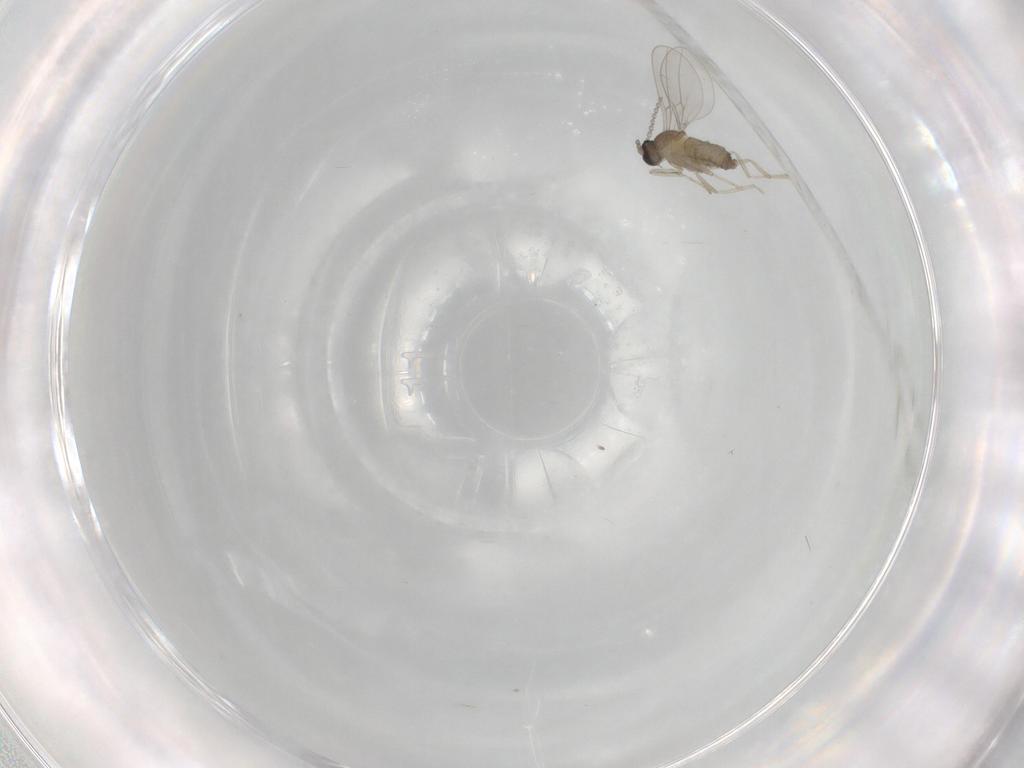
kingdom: Animalia
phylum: Arthropoda
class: Insecta
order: Diptera
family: Cecidomyiidae
